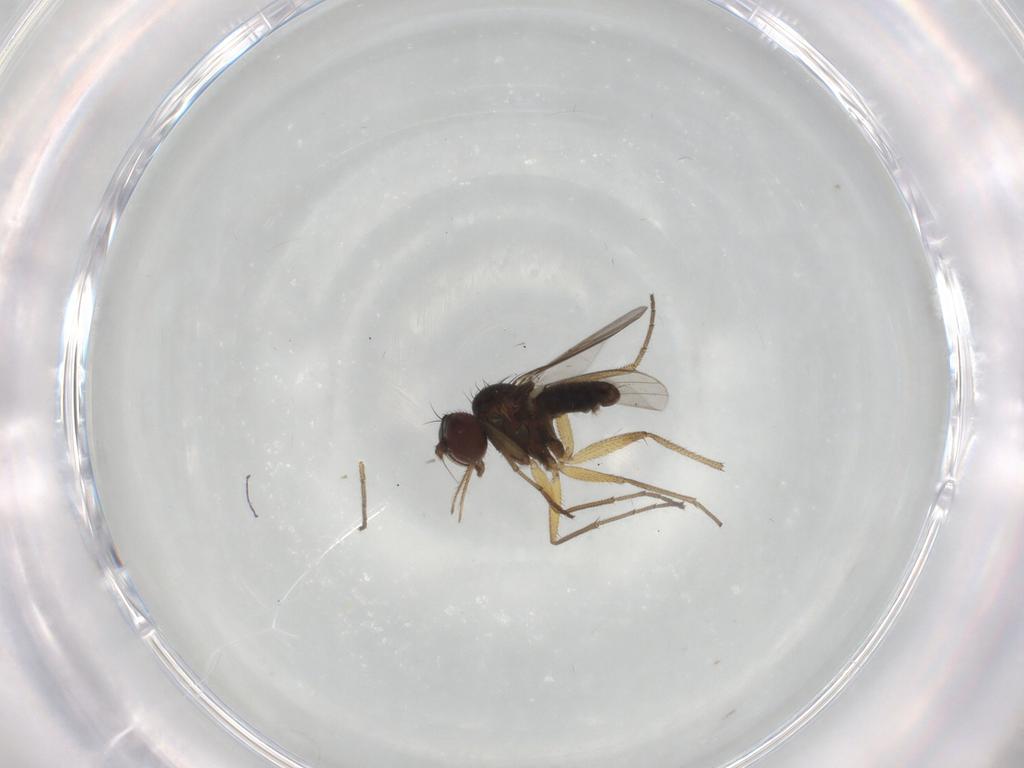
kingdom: Animalia
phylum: Arthropoda
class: Insecta
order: Diptera
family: Dolichopodidae
